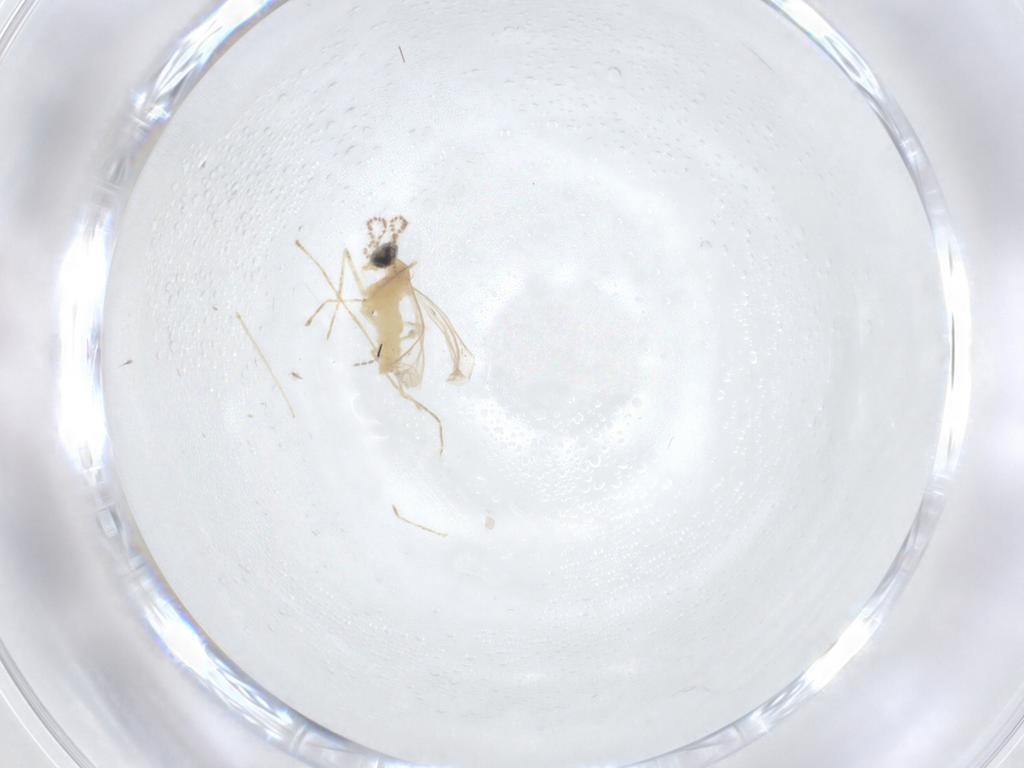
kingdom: Animalia
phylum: Arthropoda
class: Insecta
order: Diptera
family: Cecidomyiidae
